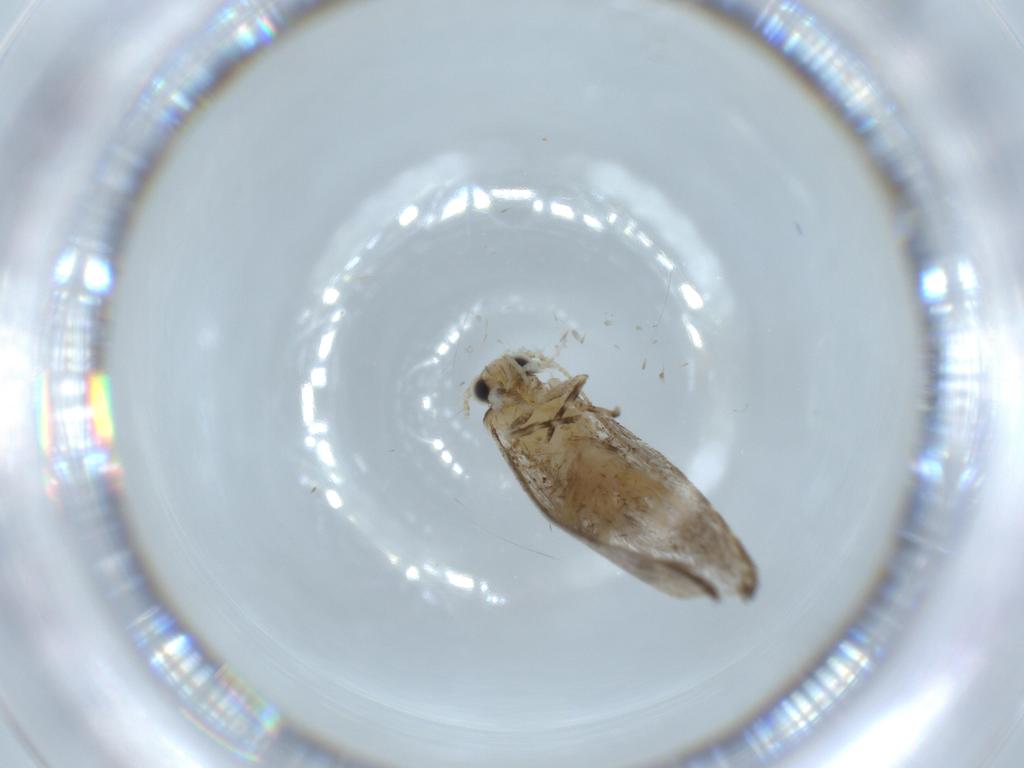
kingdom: Animalia
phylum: Arthropoda
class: Insecta
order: Lepidoptera
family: Tineidae
